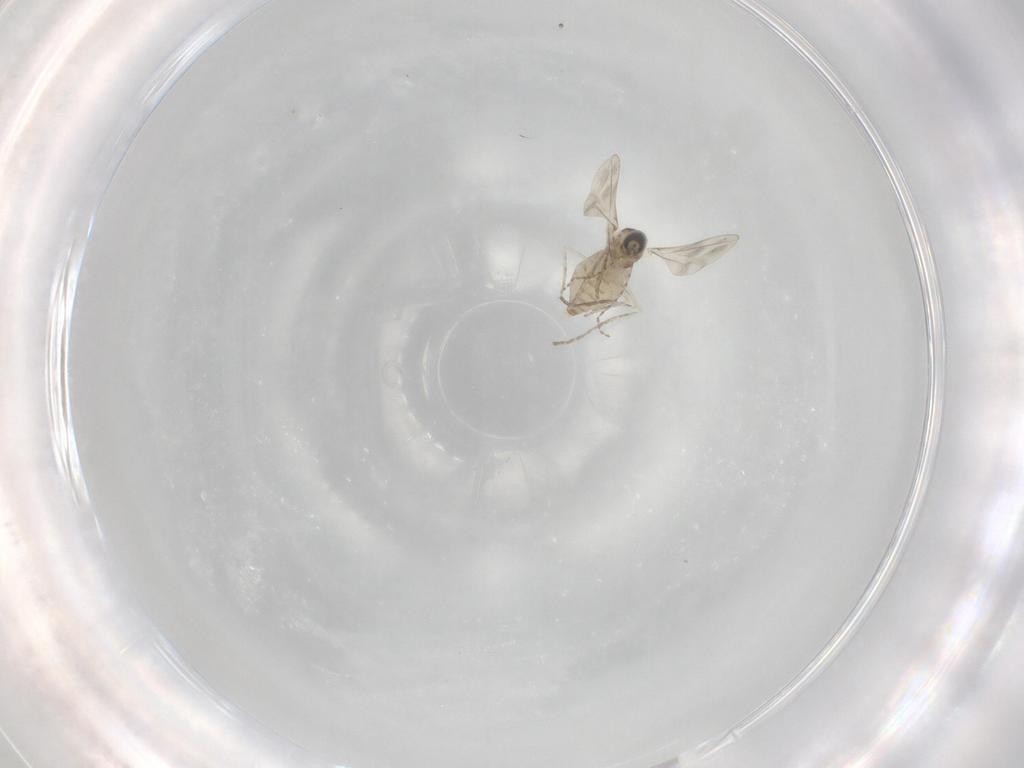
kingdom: Animalia
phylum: Arthropoda
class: Insecta
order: Diptera
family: Cecidomyiidae
